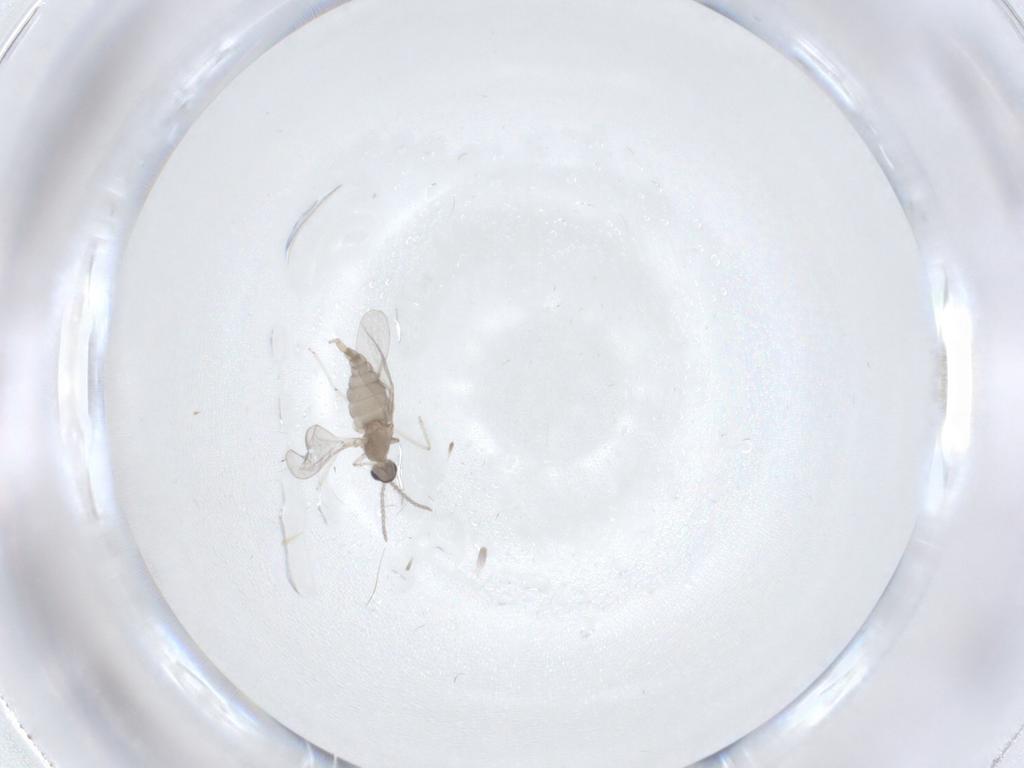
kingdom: Animalia
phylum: Arthropoda
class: Insecta
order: Diptera
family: Cecidomyiidae
